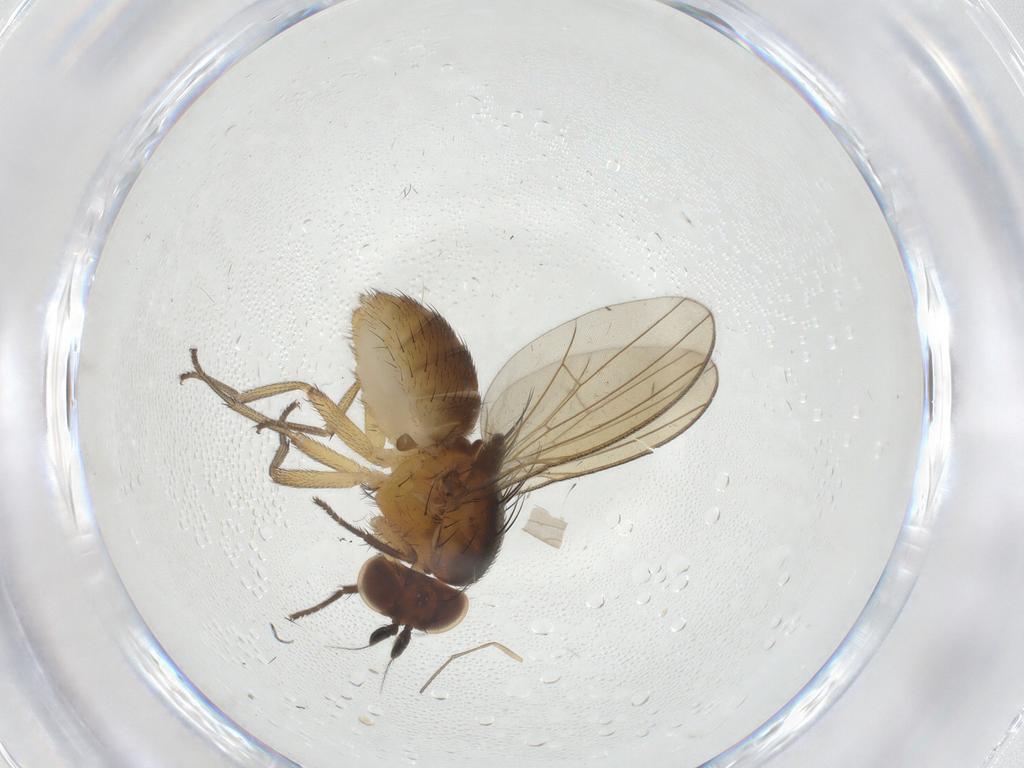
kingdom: Animalia
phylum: Arthropoda
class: Insecta
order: Diptera
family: Sciaridae
